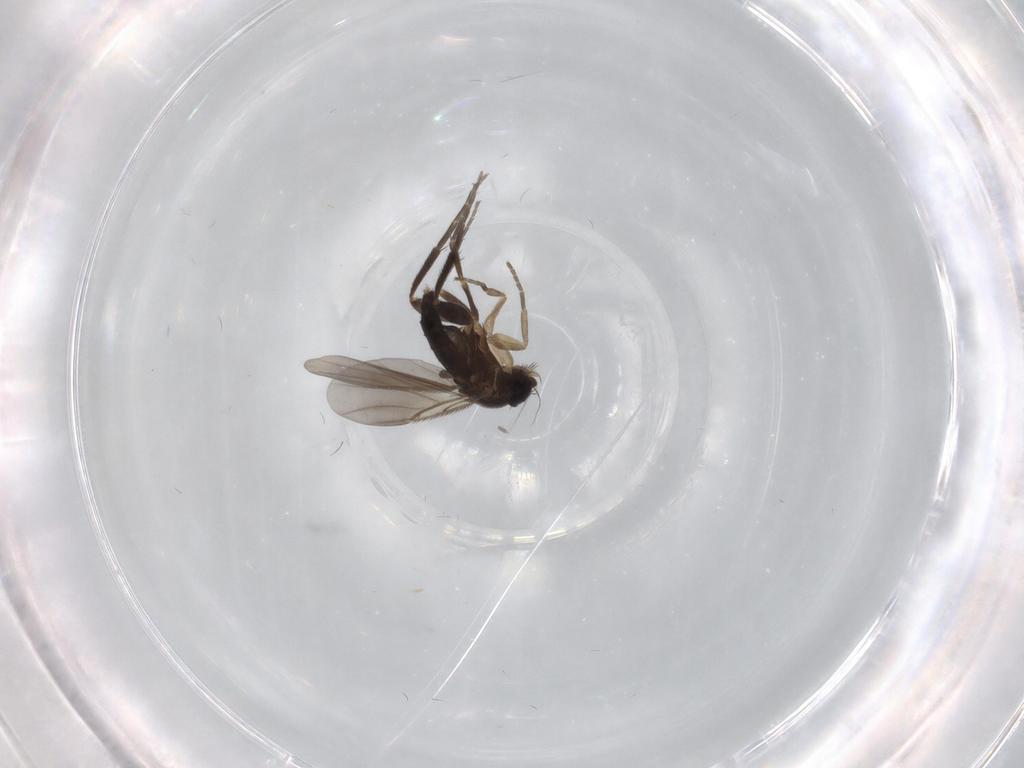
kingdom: Animalia
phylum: Arthropoda
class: Insecta
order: Diptera
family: Phoridae
